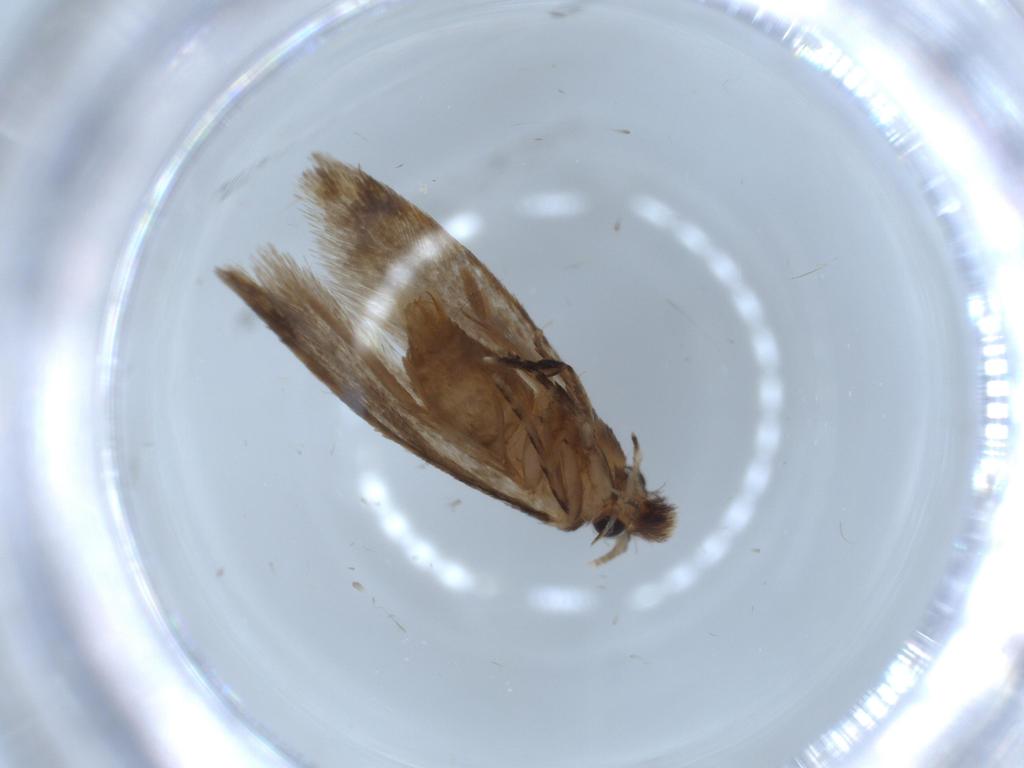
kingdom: Animalia
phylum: Arthropoda
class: Insecta
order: Lepidoptera
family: Tineidae
